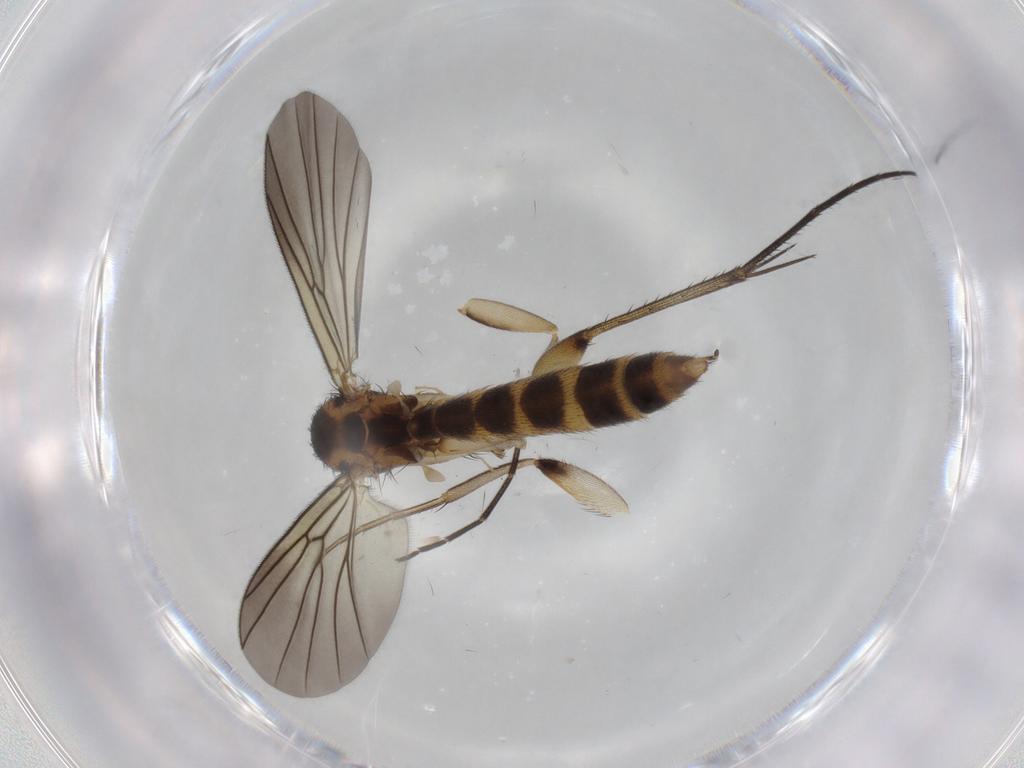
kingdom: Animalia
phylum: Arthropoda
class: Insecta
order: Diptera
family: Mycetophilidae
